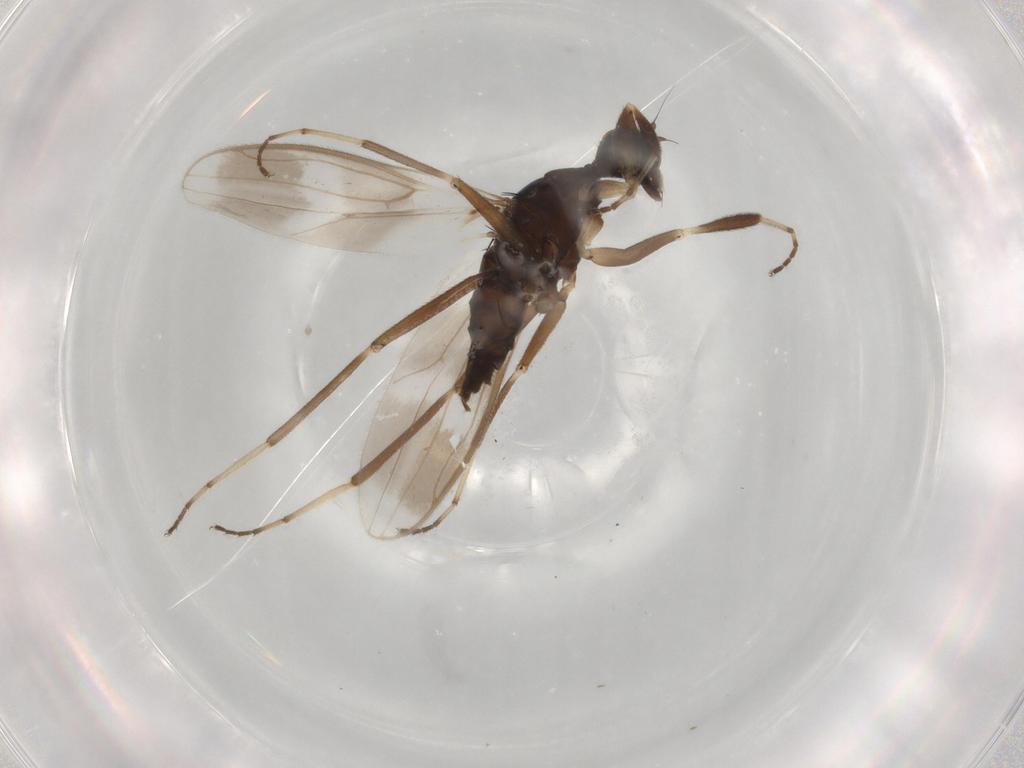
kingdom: Animalia
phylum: Arthropoda
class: Insecta
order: Diptera
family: Hybotidae
